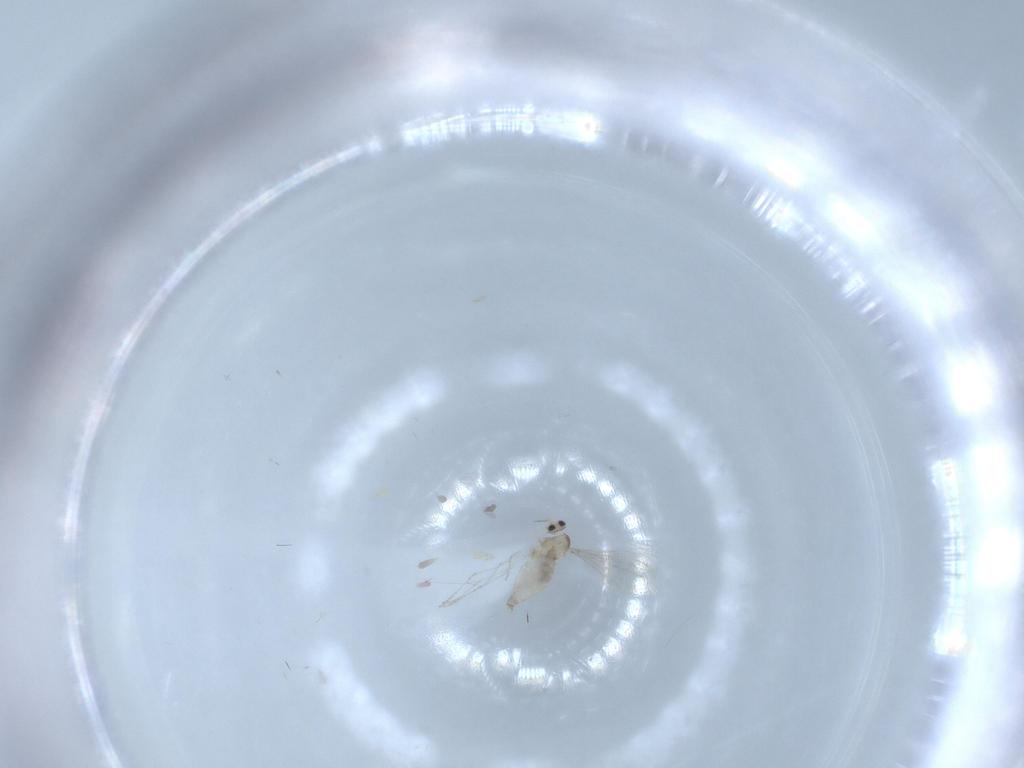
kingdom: Animalia
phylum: Arthropoda
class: Insecta
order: Diptera
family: Cecidomyiidae
